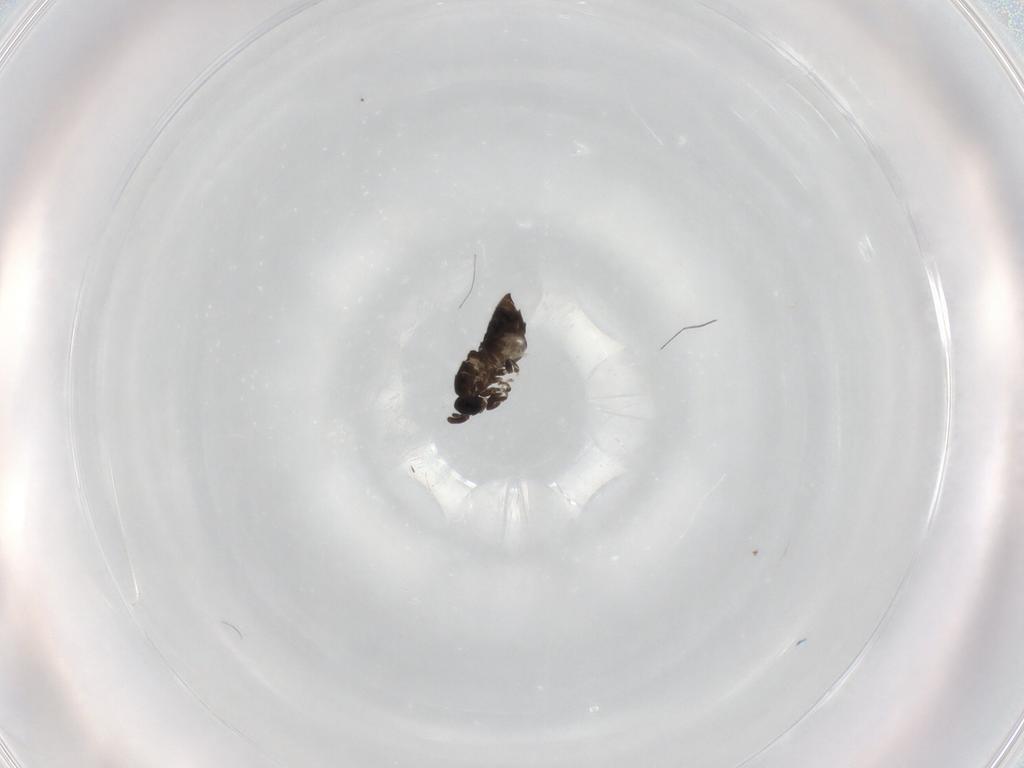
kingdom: Animalia
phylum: Arthropoda
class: Insecta
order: Diptera
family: Scatopsidae
